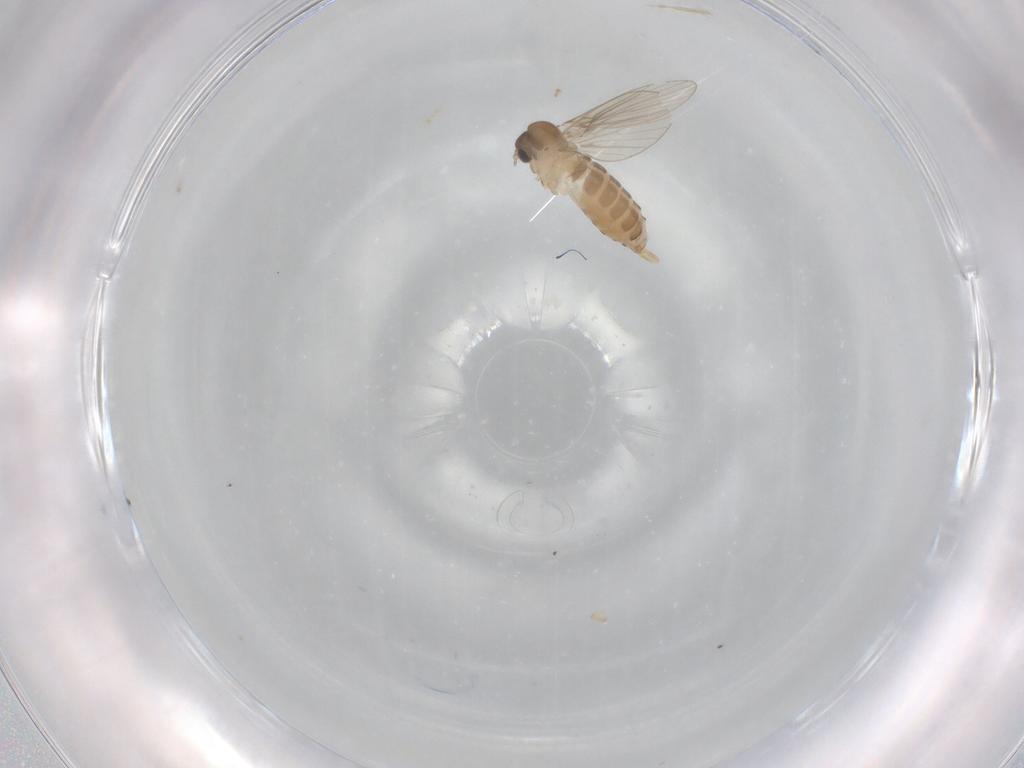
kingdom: Animalia
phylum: Arthropoda
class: Insecta
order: Diptera
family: Psychodidae
